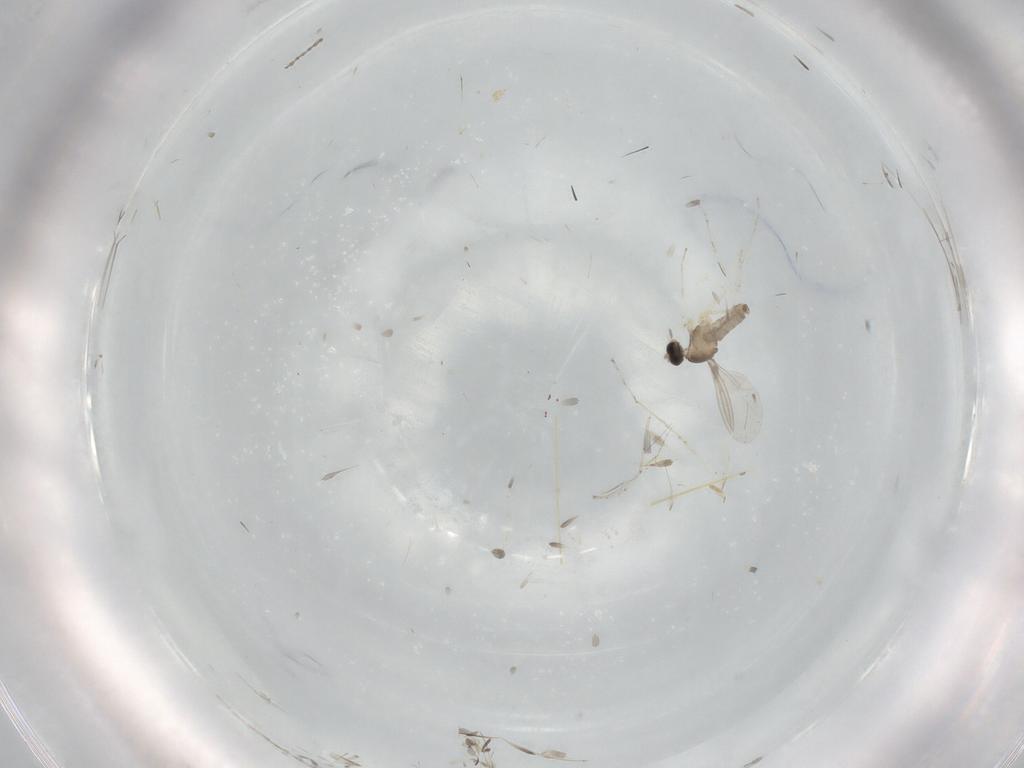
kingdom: Animalia
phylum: Arthropoda
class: Insecta
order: Diptera
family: Cecidomyiidae
